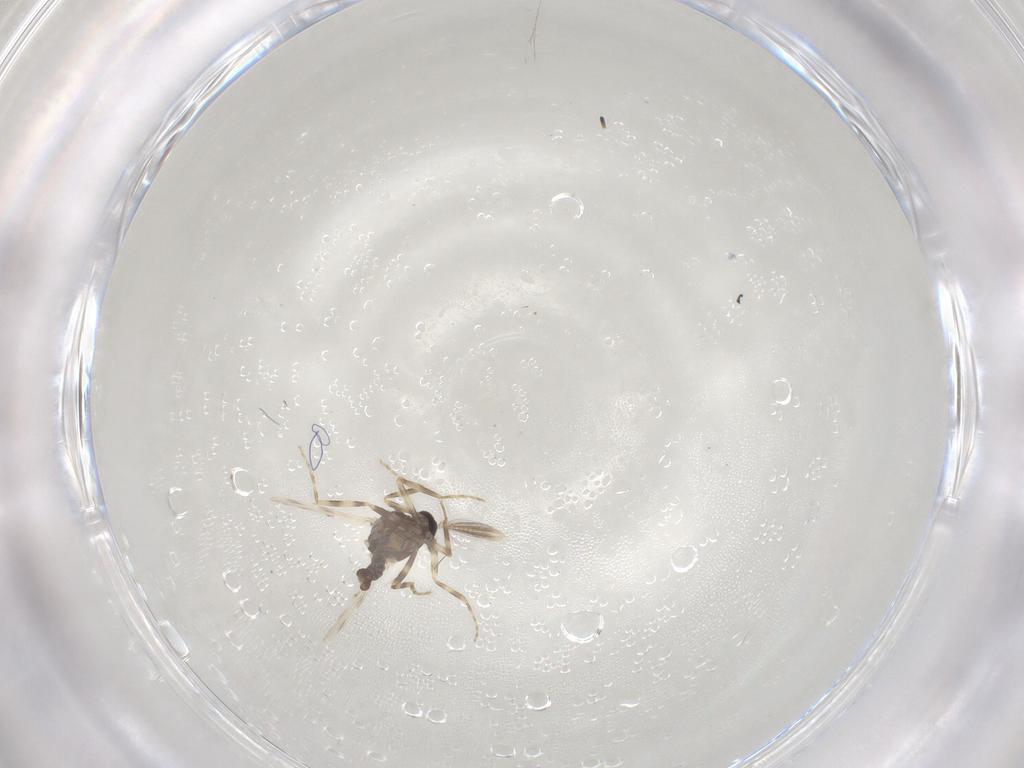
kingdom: Animalia
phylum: Arthropoda
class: Insecta
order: Diptera
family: Ceratopogonidae
